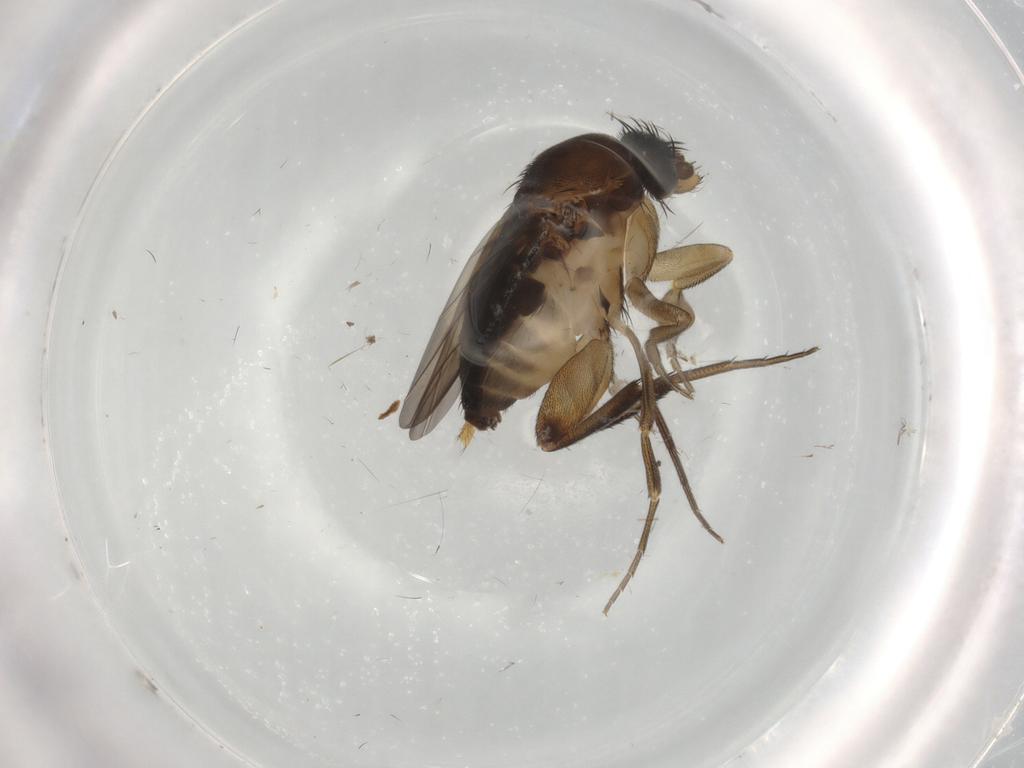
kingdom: Animalia
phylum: Arthropoda
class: Insecta
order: Diptera
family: Phoridae
